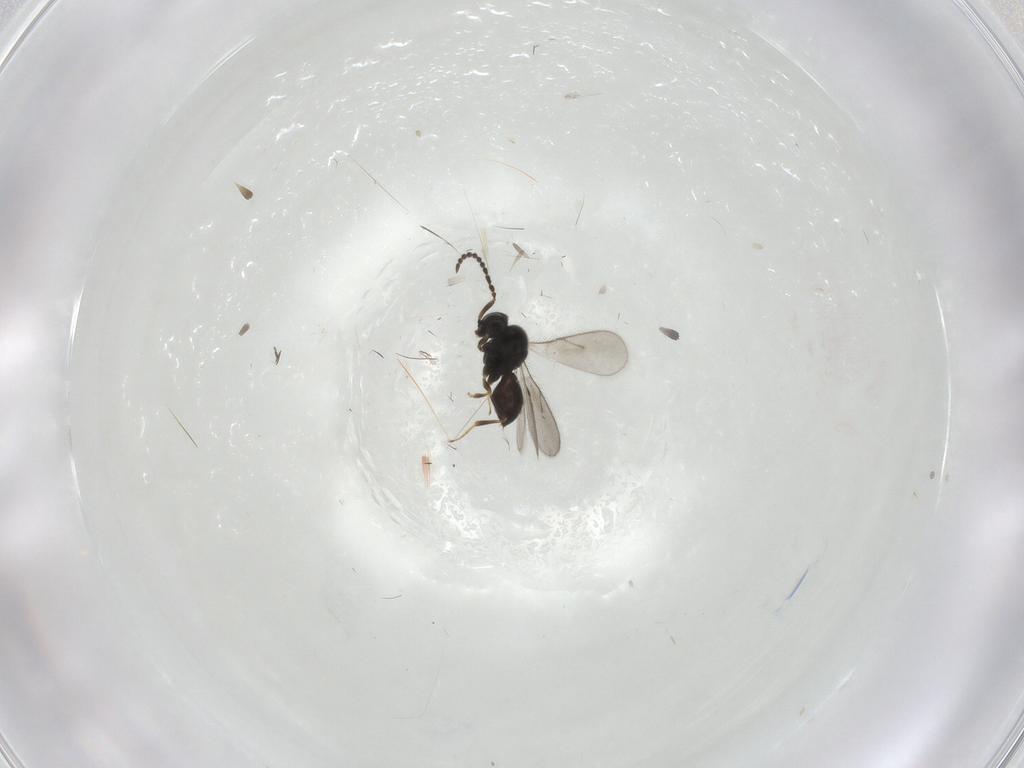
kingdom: Animalia
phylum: Arthropoda
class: Insecta
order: Hymenoptera
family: Scelionidae
